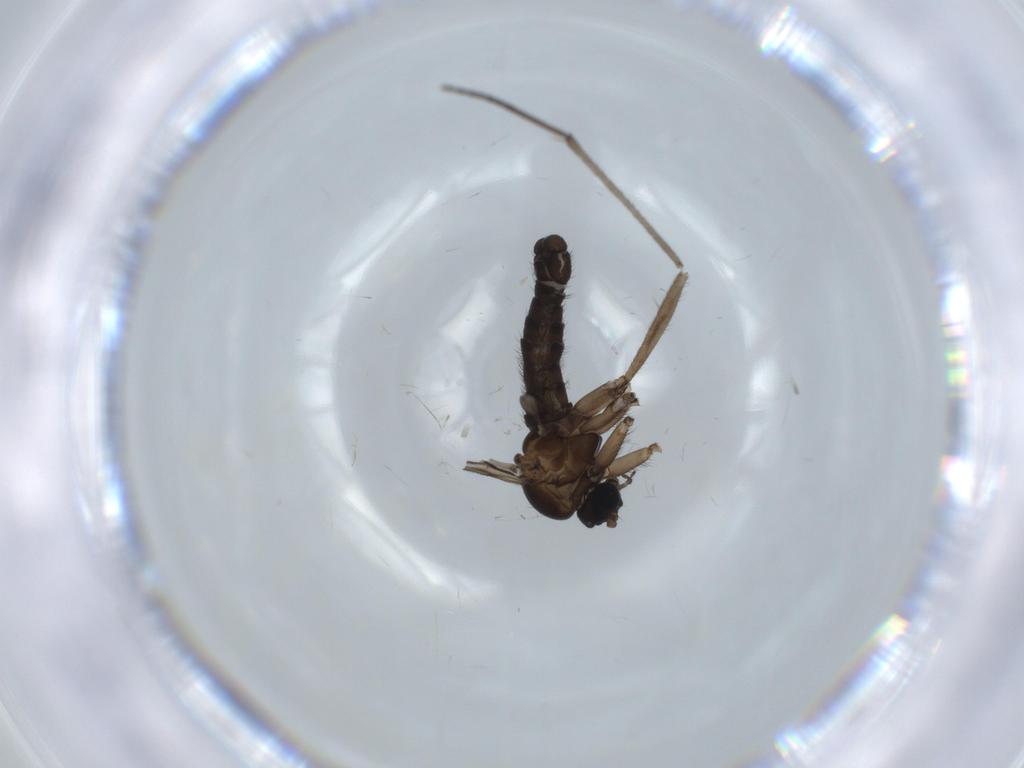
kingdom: Animalia
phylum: Arthropoda
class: Insecta
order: Diptera
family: Sciaridae
